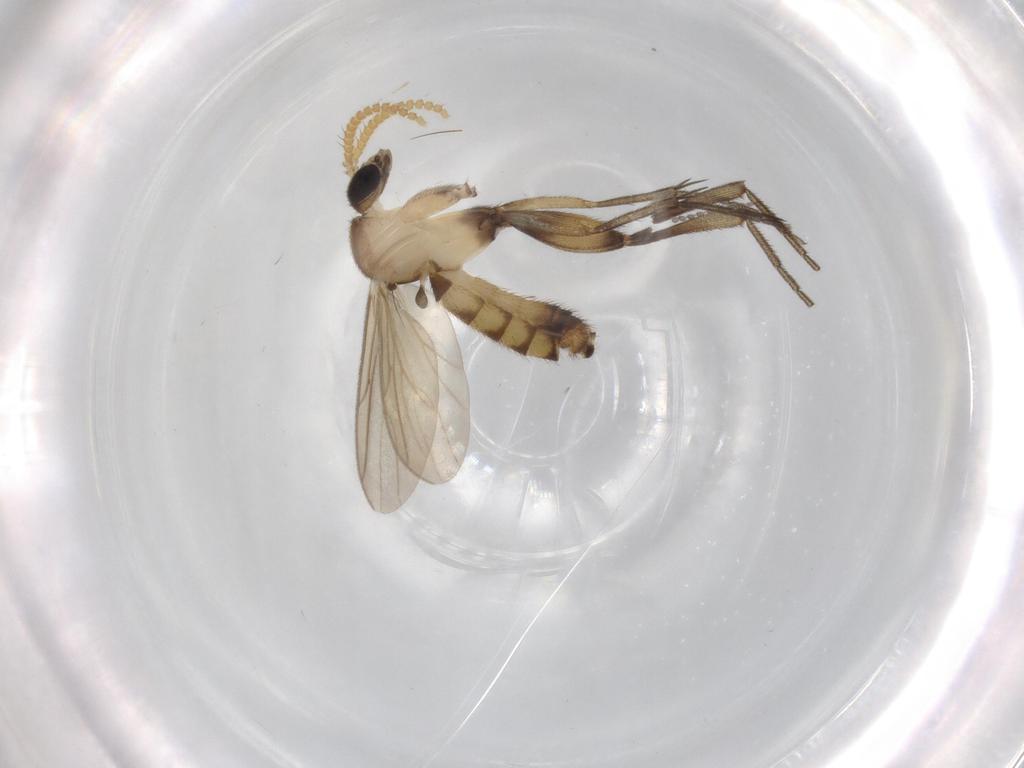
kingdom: Animalia
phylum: Arthropoda
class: Insecta
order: Diptera
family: Mycetophilidae
